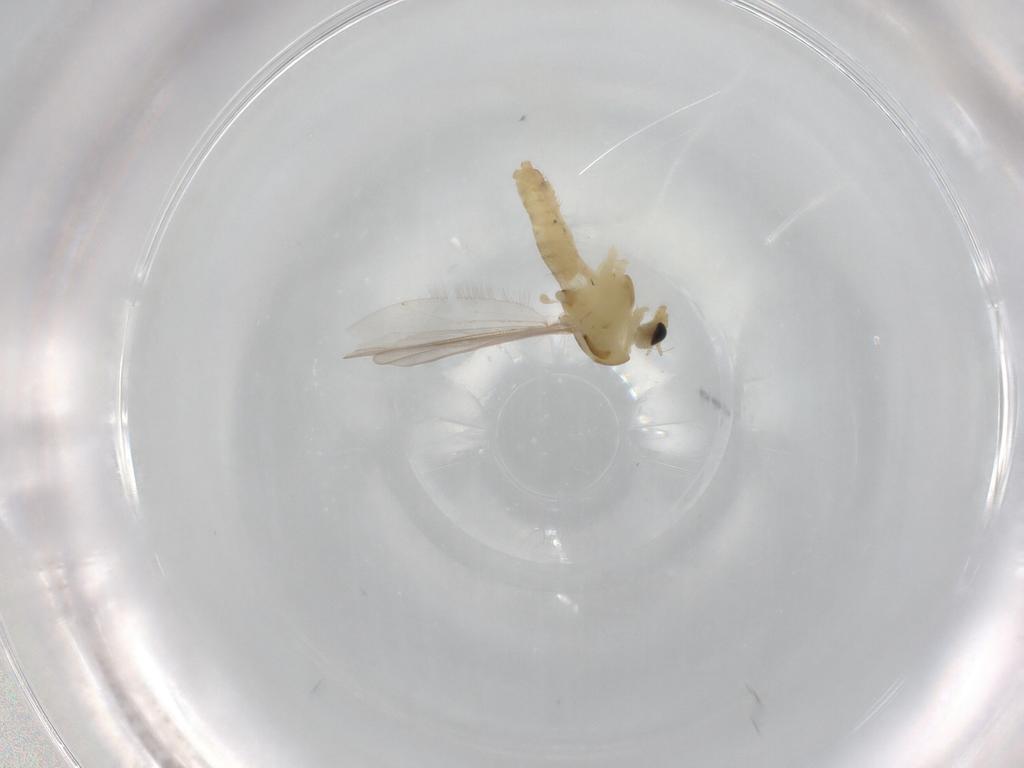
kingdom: Animalia
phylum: Arthropoda
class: Insecta
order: Diptera
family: Chironomidae
